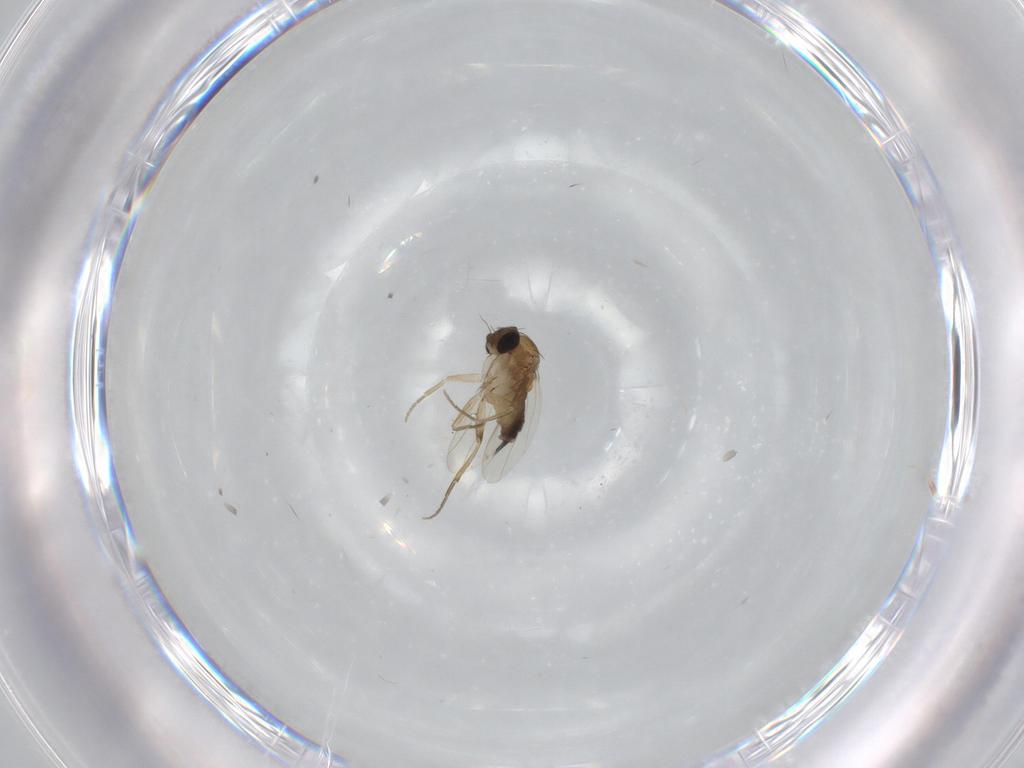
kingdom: Animalia
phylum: Arthropoda
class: Insecta
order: Diptera
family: Phoridae
